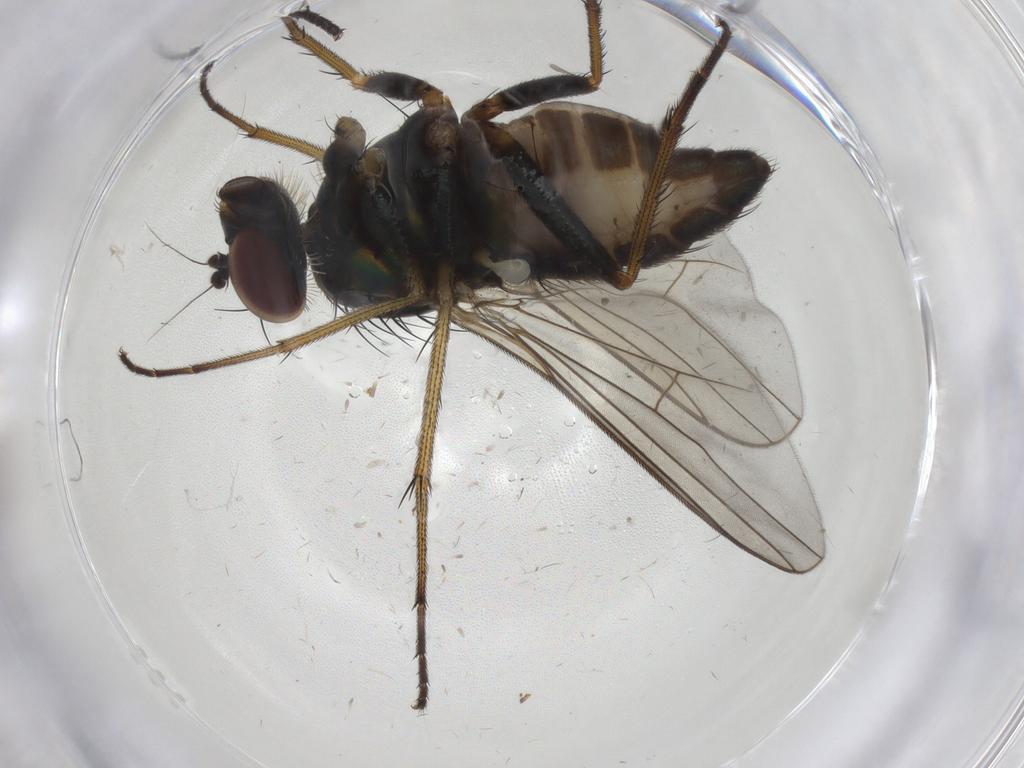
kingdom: Animalia
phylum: Arthropoda
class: Insecta
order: Diptera
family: Dolichopodidae
